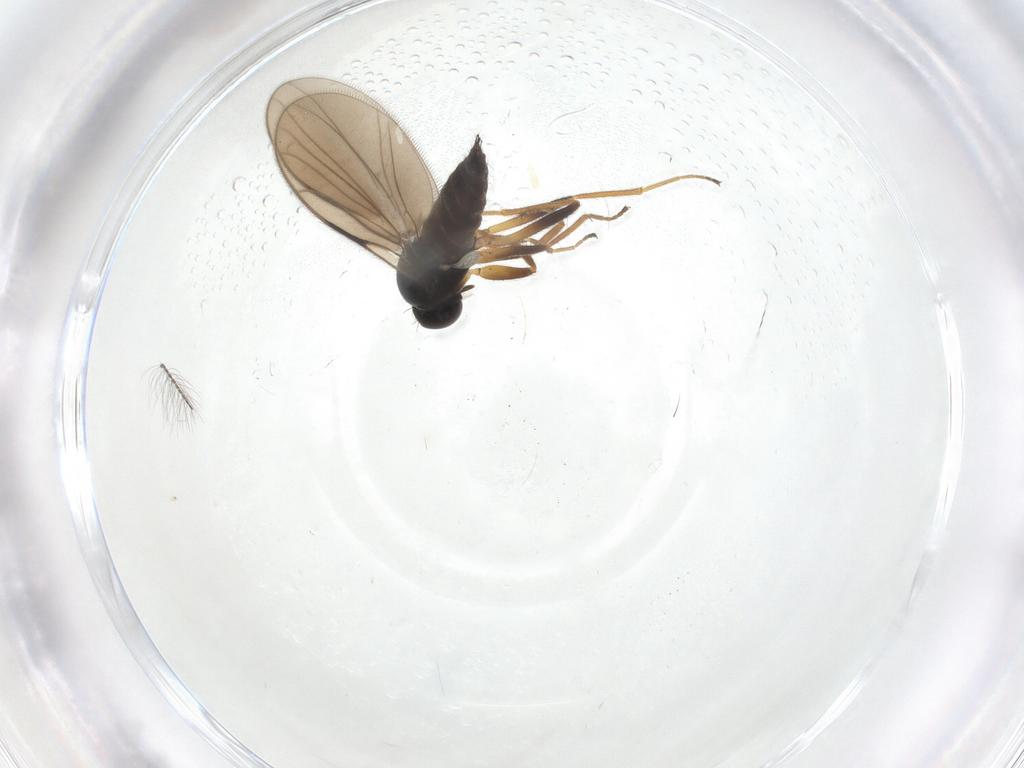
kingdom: Animalia
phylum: Arthropoda
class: Insecta
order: Diptera
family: Hybotidae
